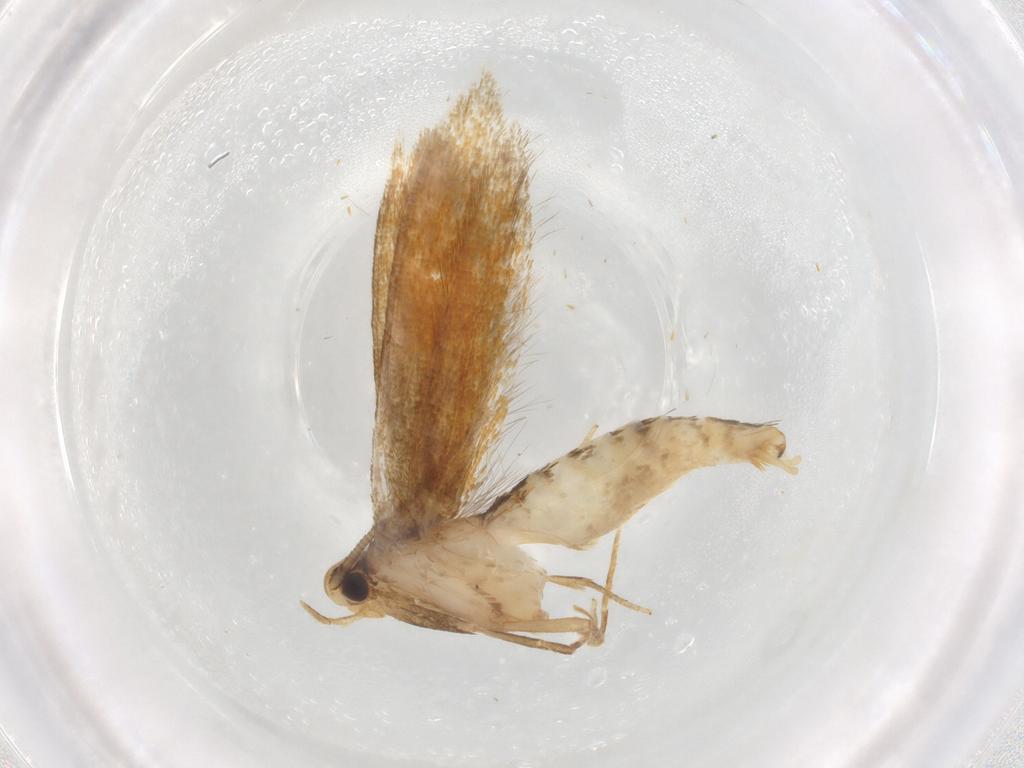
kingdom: Animalia
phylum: Arthropoda
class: Insecta
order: Lepidoptera
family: Tineidae
